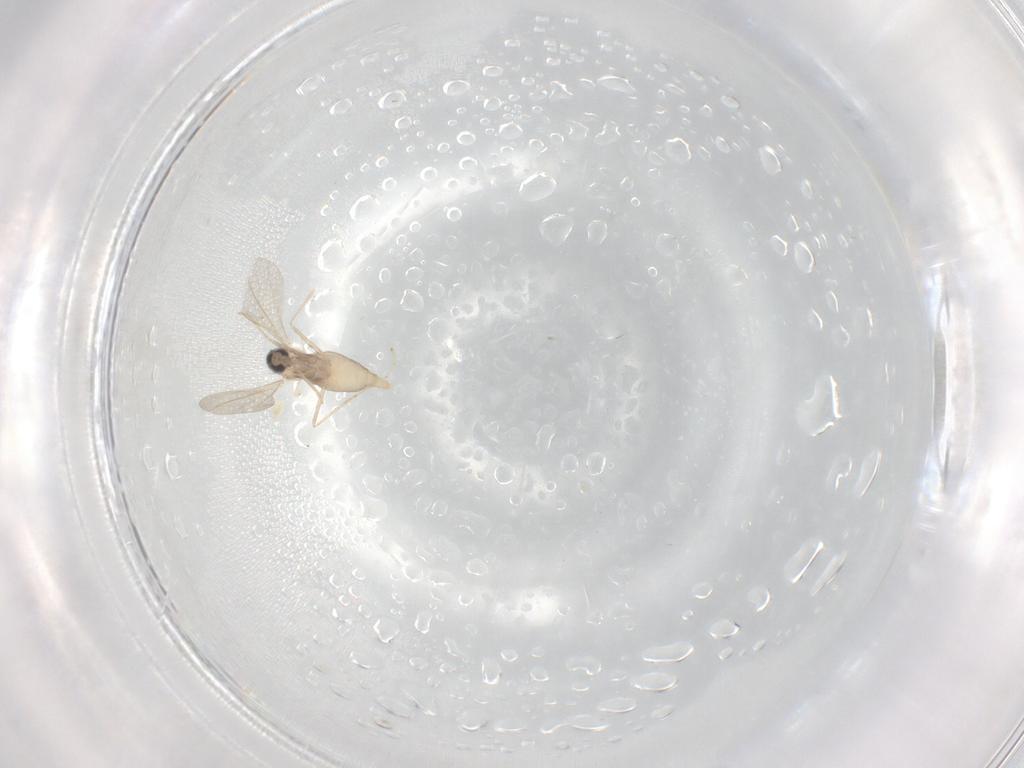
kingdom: Animalia
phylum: Arthropoda
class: Insecta
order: Diptera
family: Cecidomyiidae
